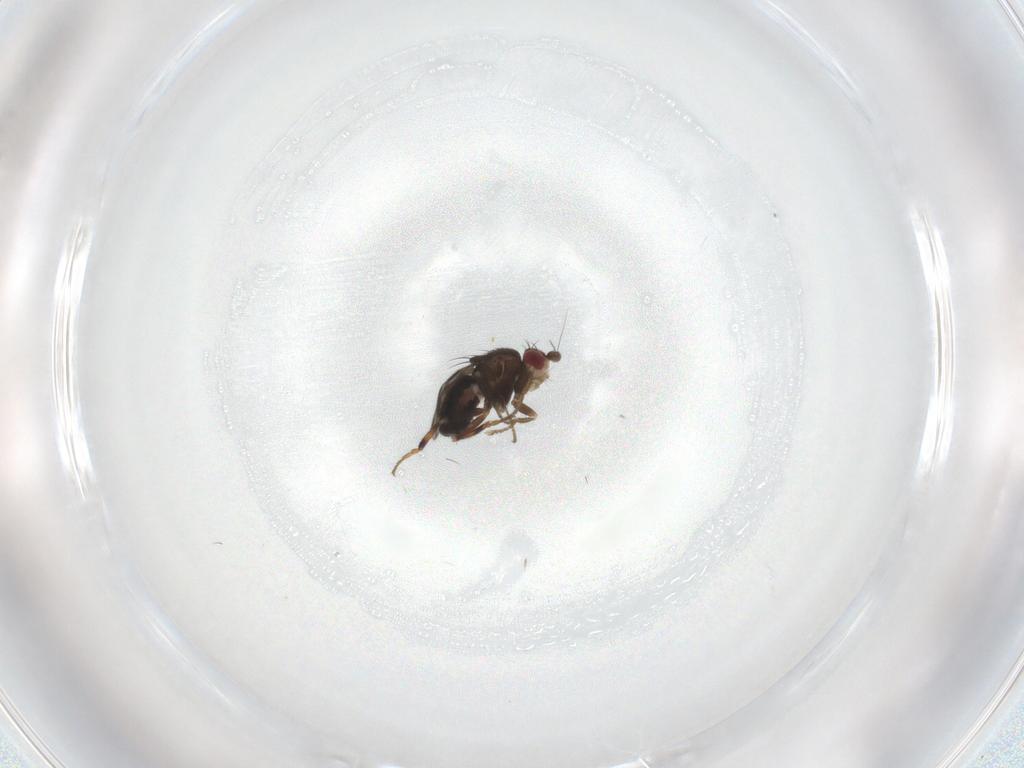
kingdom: Animalia
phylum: Arthropoda
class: Insecta
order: Diptera
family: Sphaeroceridae
